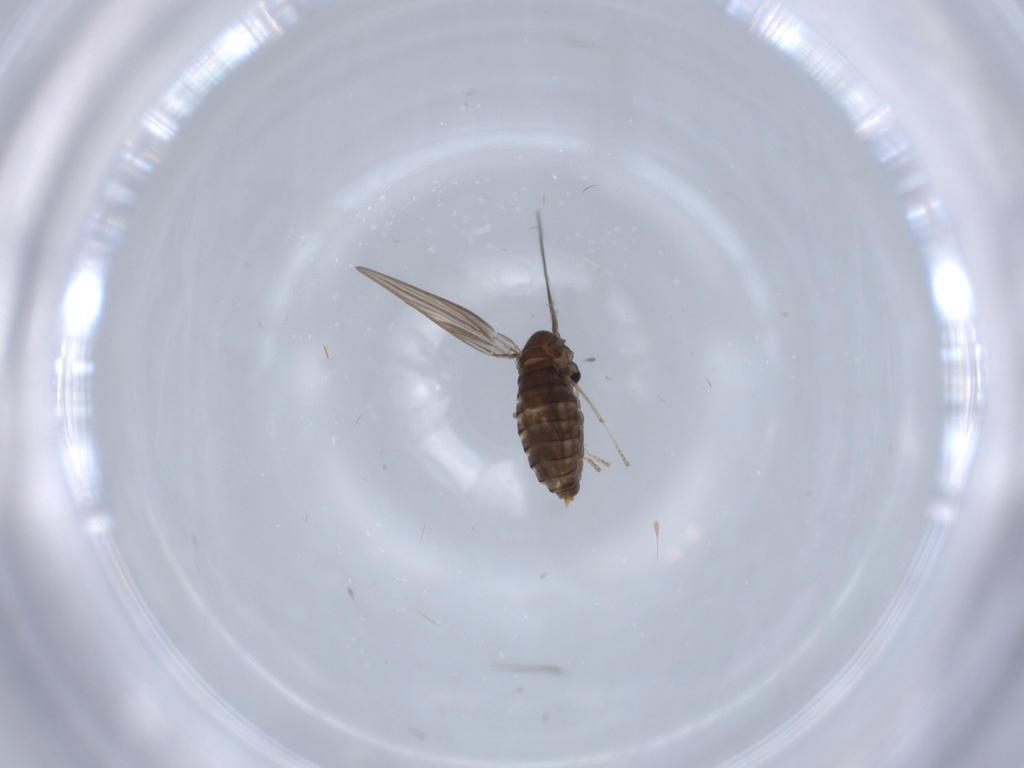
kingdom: Animalia
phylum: Arthropoda
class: Insecta
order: Diptera
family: Psychodidae
